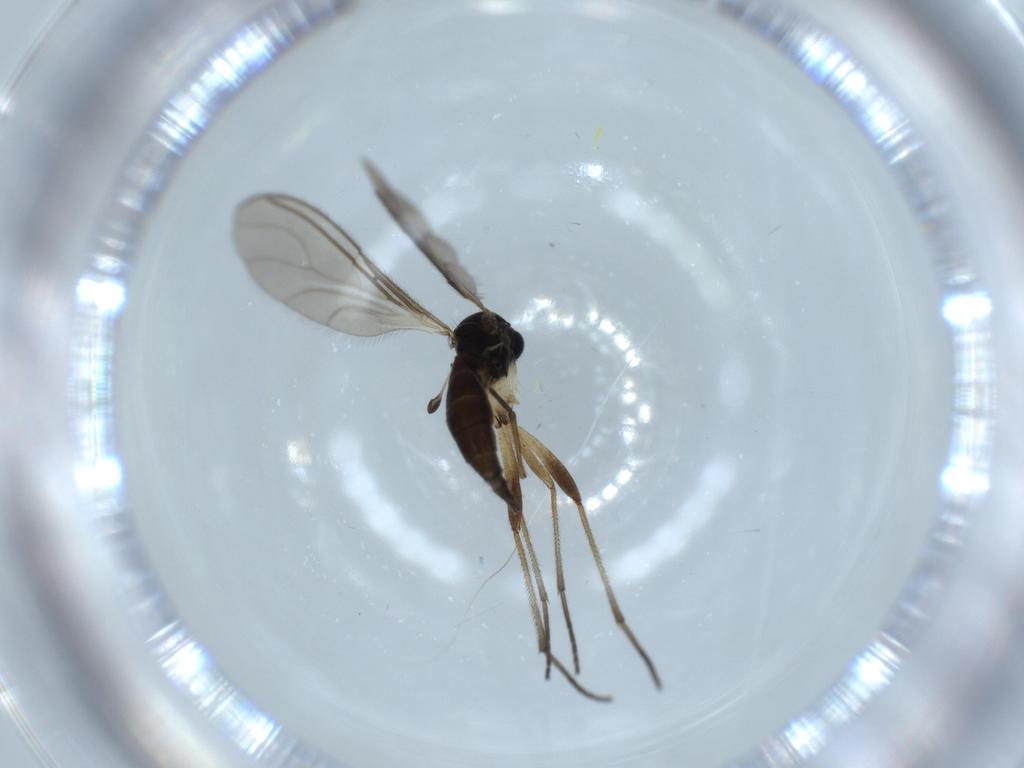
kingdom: Animalia
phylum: Arthropoda
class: Insecta
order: Diptera
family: Sciaridae
